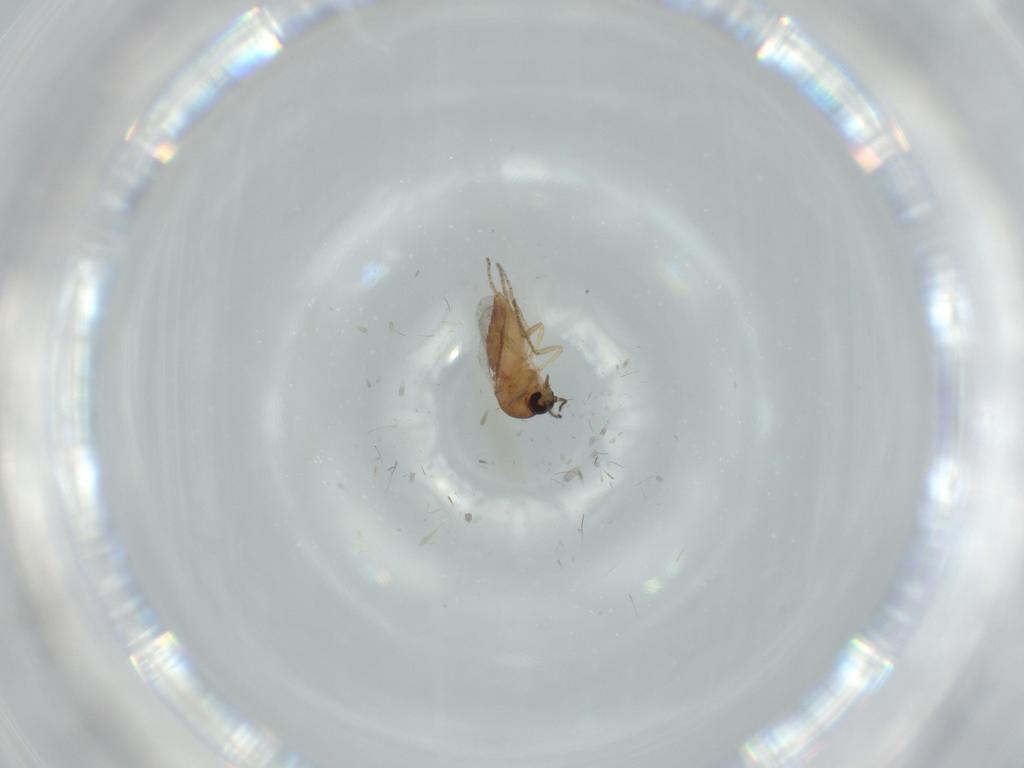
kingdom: Animalia
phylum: Arthropoda
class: Insecta
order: Diptera
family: Ceratopogonidae
